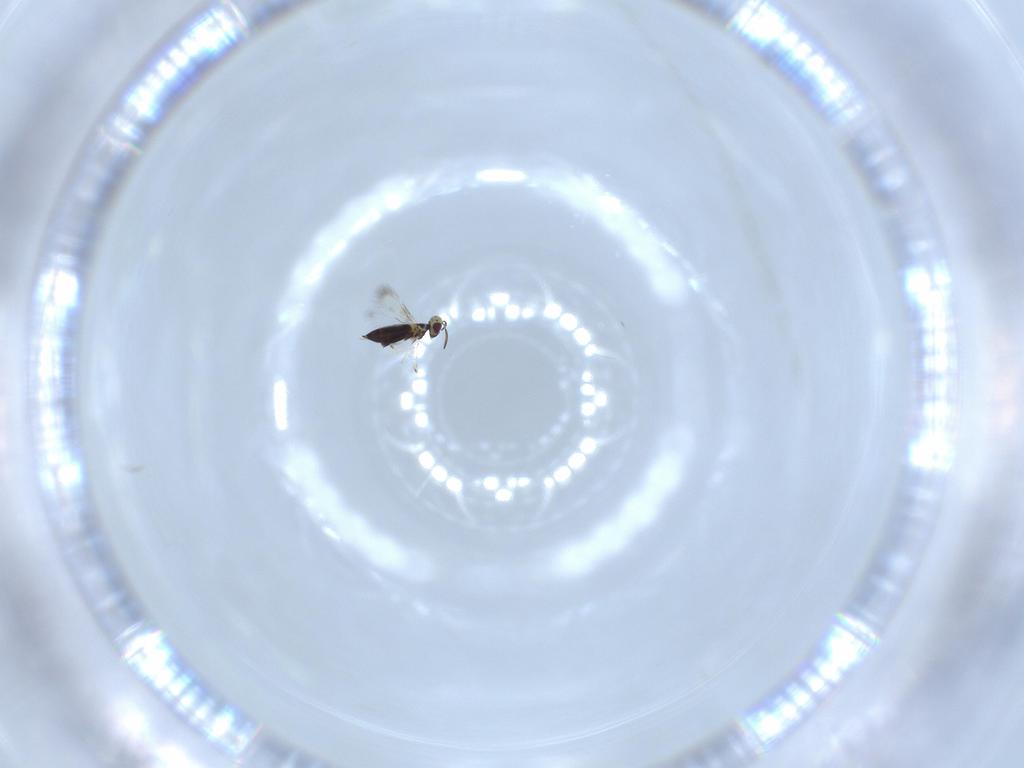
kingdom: Animalia
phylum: Arthropoda
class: Insecta
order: Hymenoptera
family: Signiphoridae
